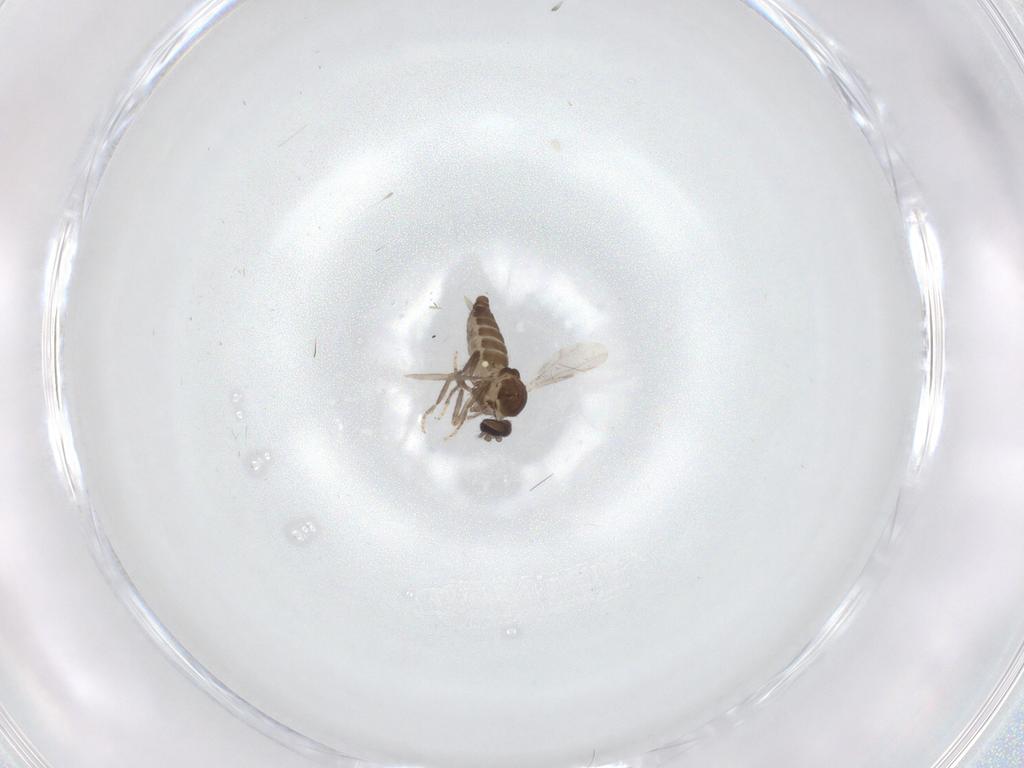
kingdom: Animalia
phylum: Arthropoda
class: Insecta
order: Diptera
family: Ceratopogonidae
